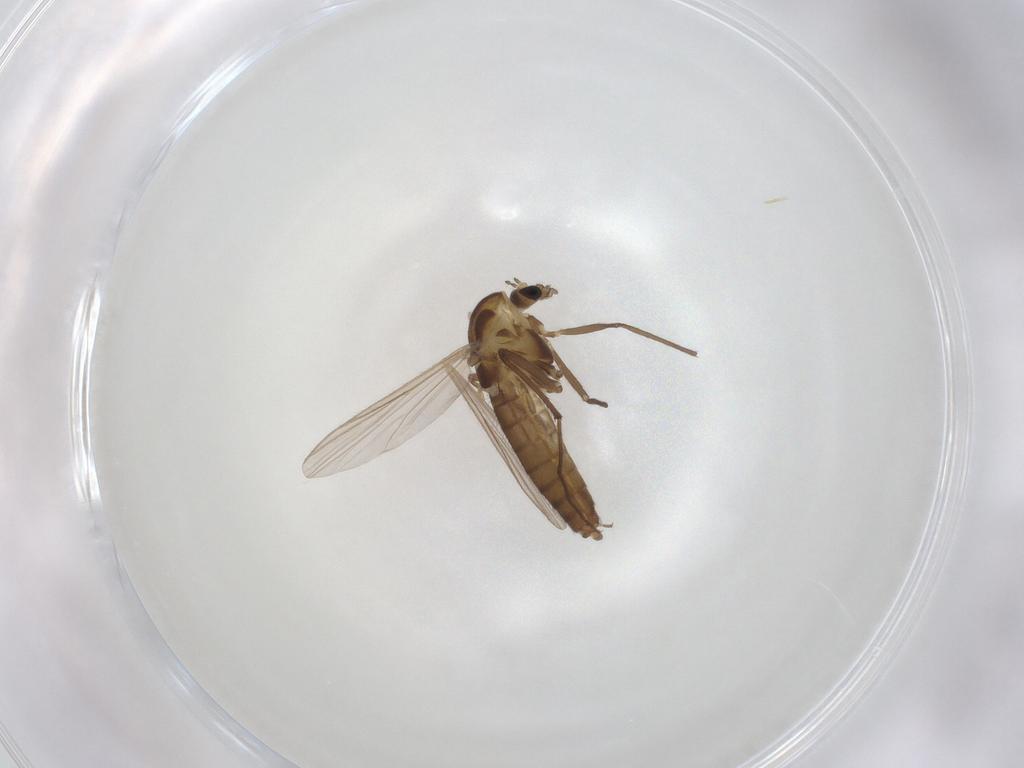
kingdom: Animalia
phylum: Arthropoda
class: Insecta
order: Diptera
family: Chironomidae
